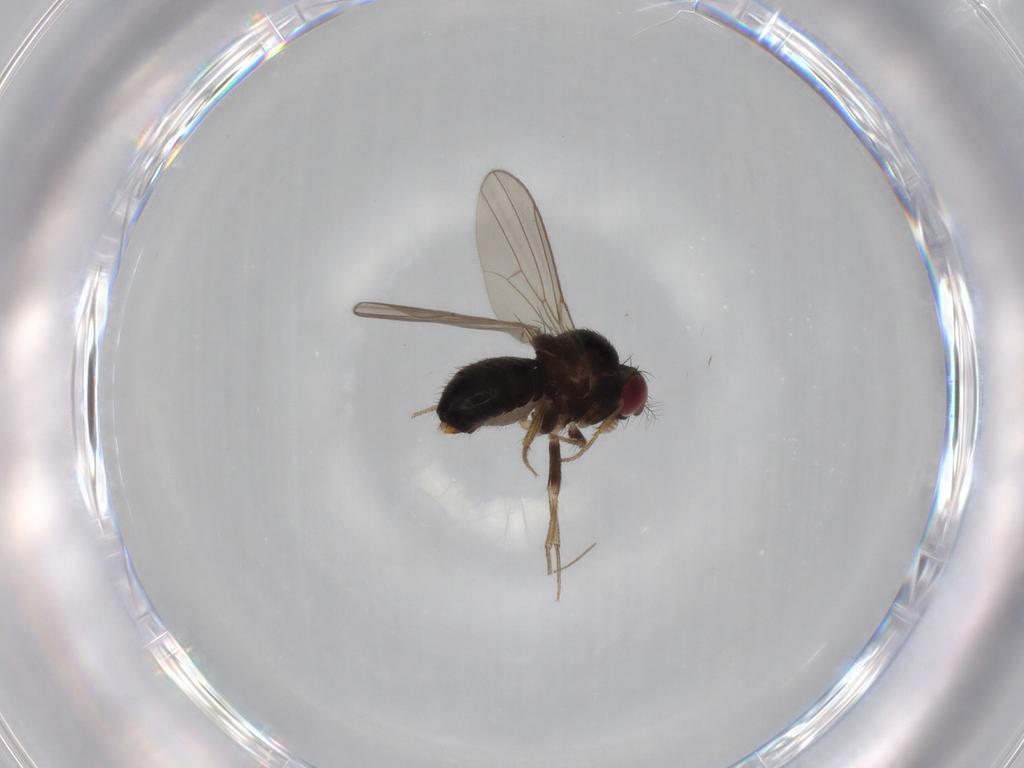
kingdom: Animalia
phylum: Arthropoda
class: Insecta
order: Diptera
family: Drosophilidae
